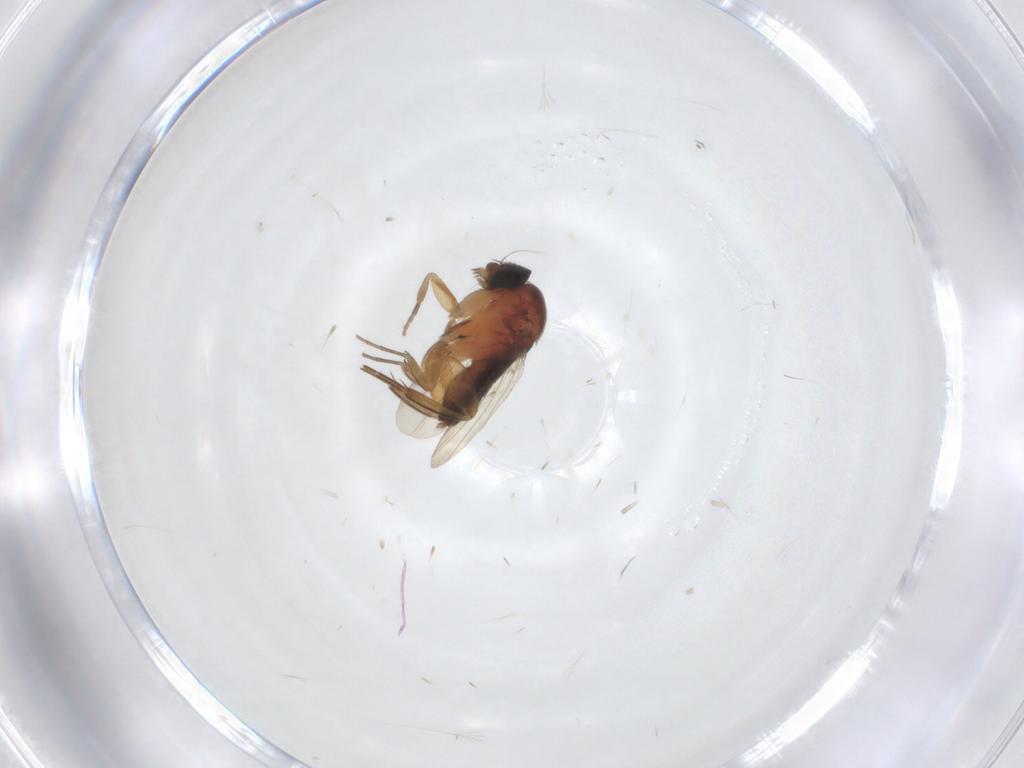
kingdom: Animalia
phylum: Arthropoda
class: Insecta
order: Diptera
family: Phoridae
